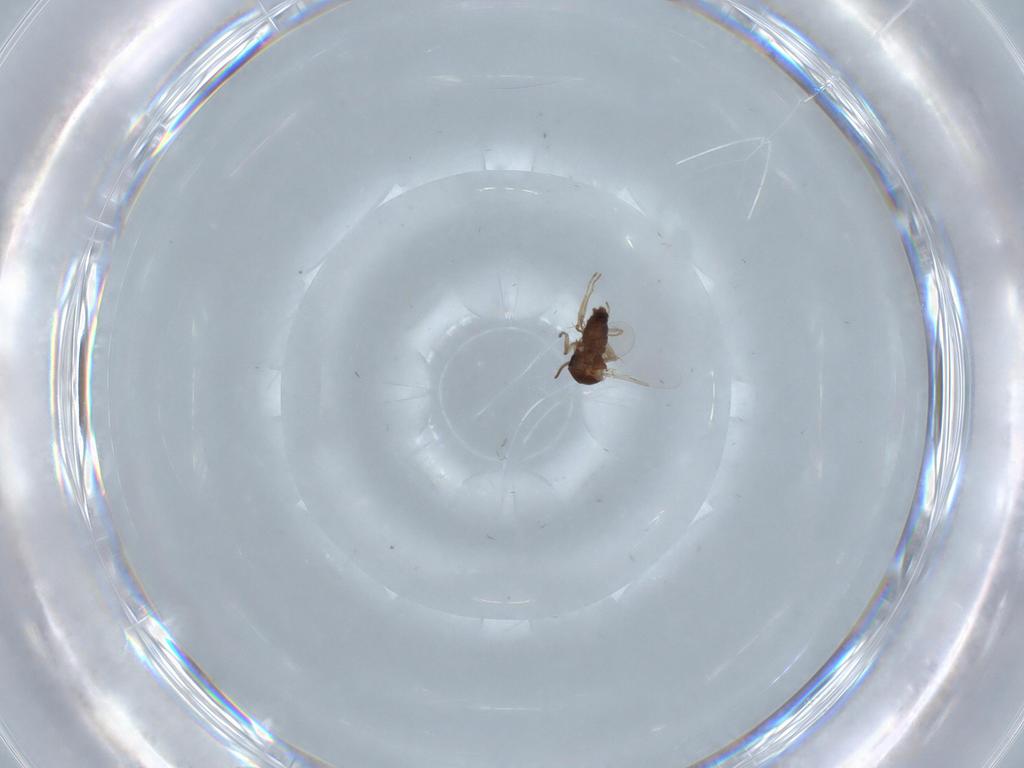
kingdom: Animalia
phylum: Arthropoda
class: Insecta
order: Diptera
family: Ceratopogonidae
